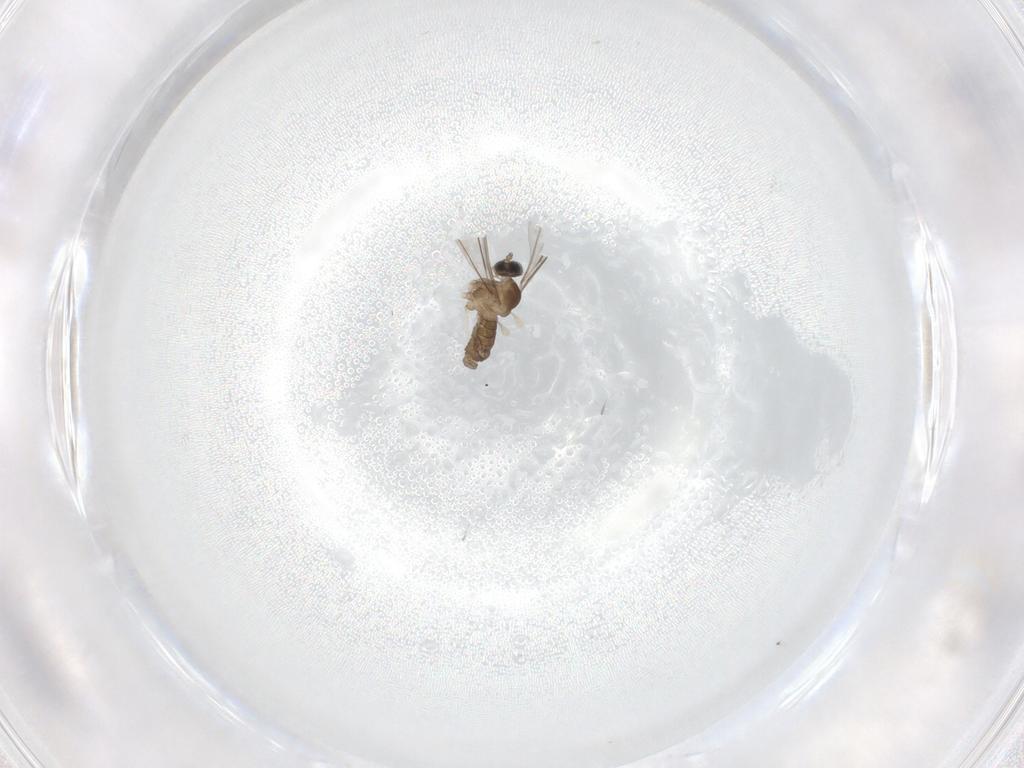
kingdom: Animalia
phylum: Arthropoda
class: Insecta
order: Diptera
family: Cecidomyiidae
